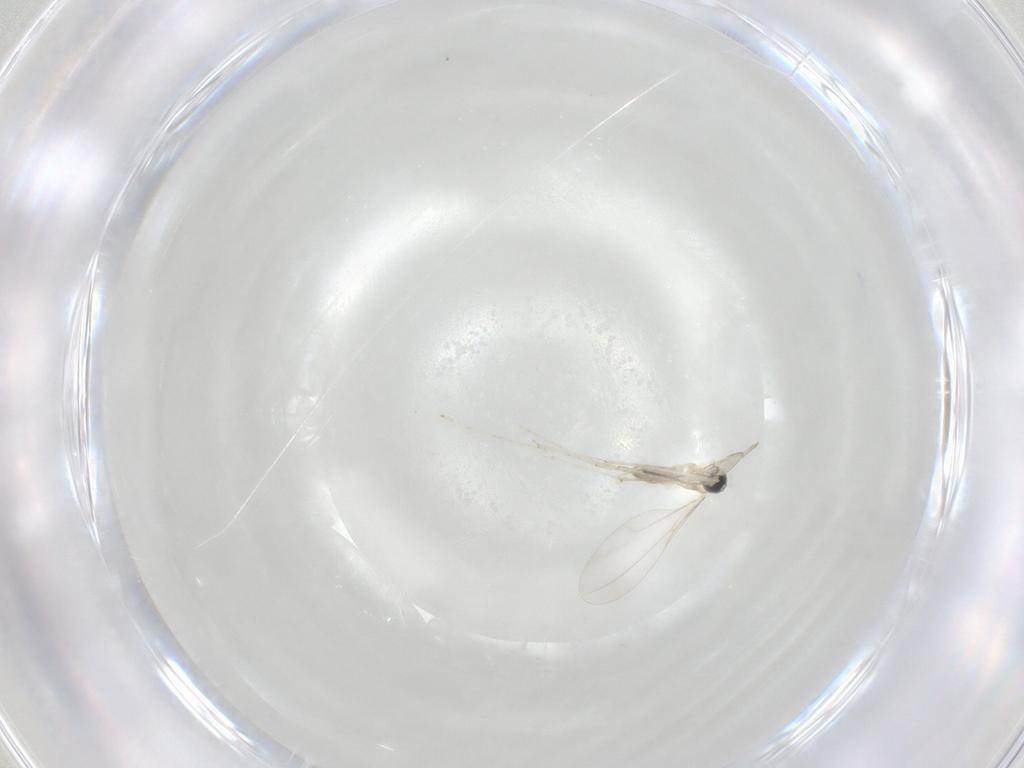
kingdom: Animalia
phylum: Arthropoda
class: Insecta
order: Diptera
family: Cecidomyiidae
